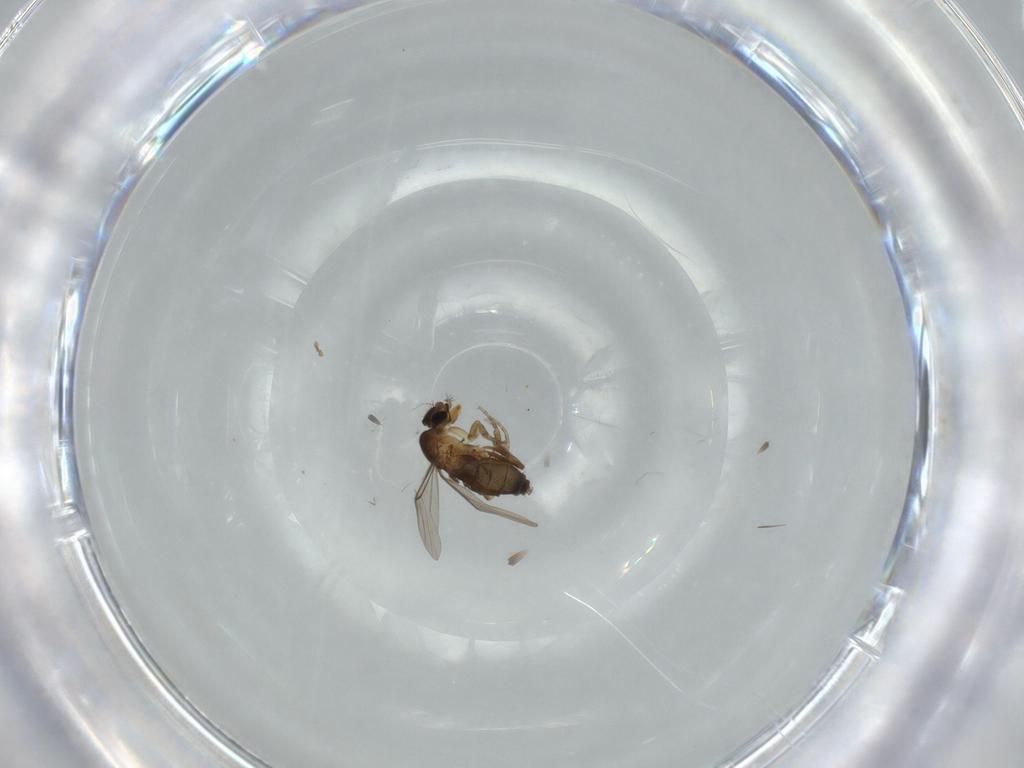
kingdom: Animalia
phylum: Arthropoda
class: Insecta
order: Diptera
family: Phoridae
